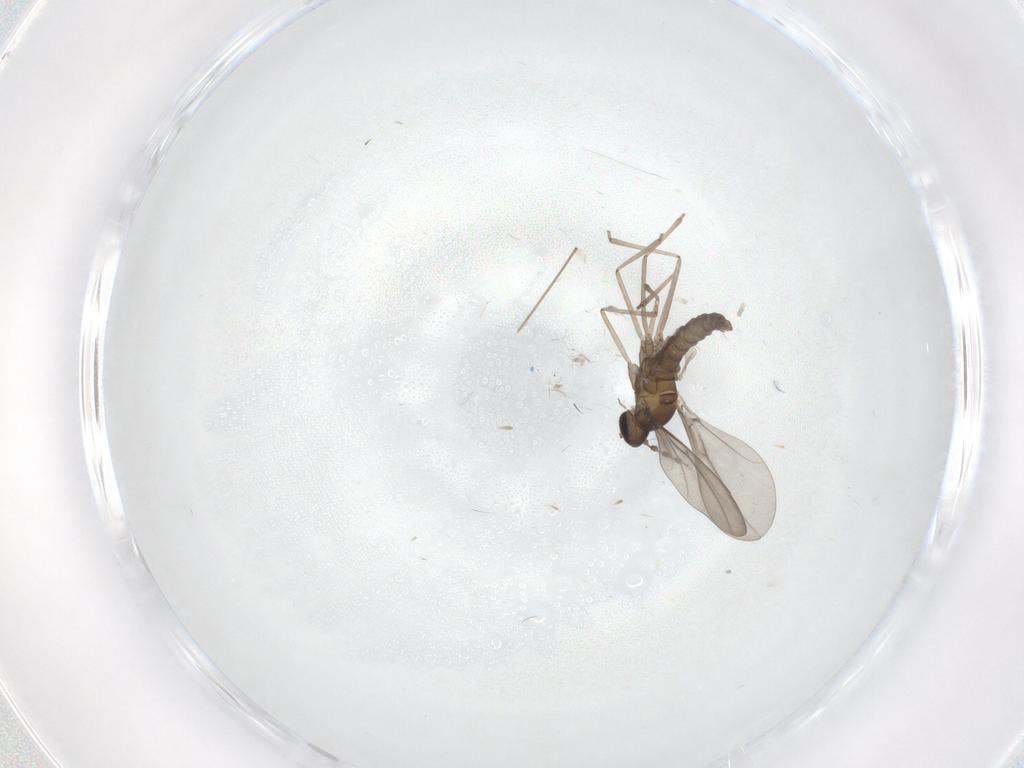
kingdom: Animalia
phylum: Arthropoda
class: Insecta
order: Diptera
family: Cecidomyiidae
